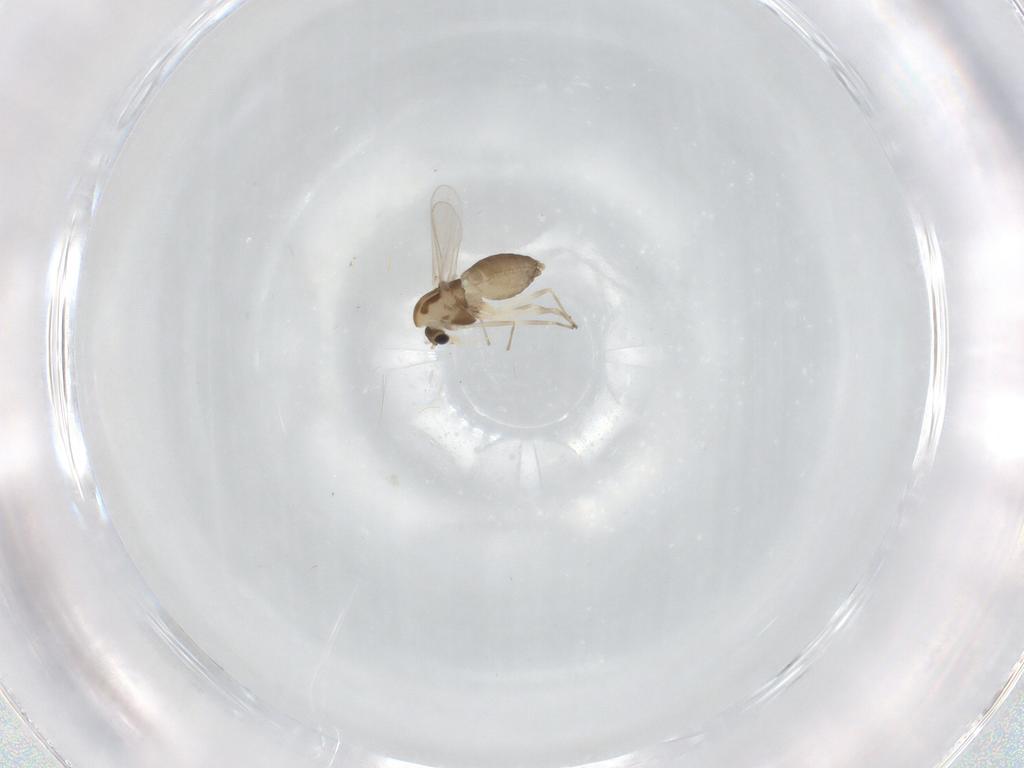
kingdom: Animalia
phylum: Arthropoda
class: Insecta
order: Diptera
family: Chironomidae
